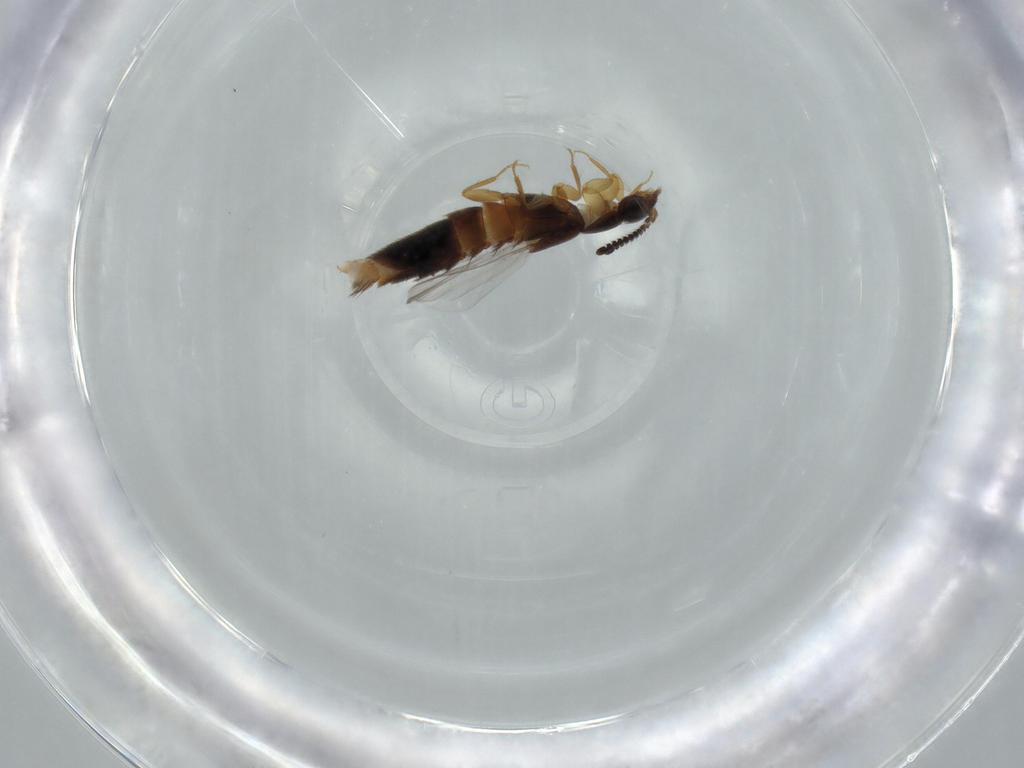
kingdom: Animalia
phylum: Arthropoda
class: Insecta
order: Coleoptera
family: Staphylinidae
